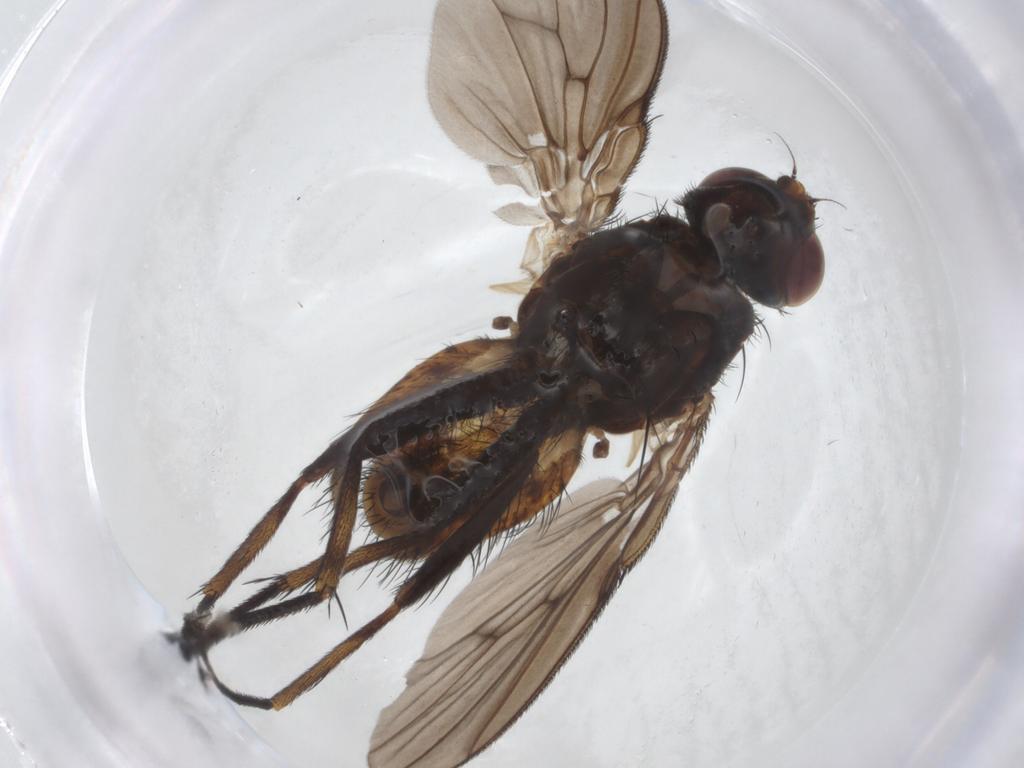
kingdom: Animalia
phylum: Arthropoda
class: Insecta
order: Diptera
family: Muscidae
